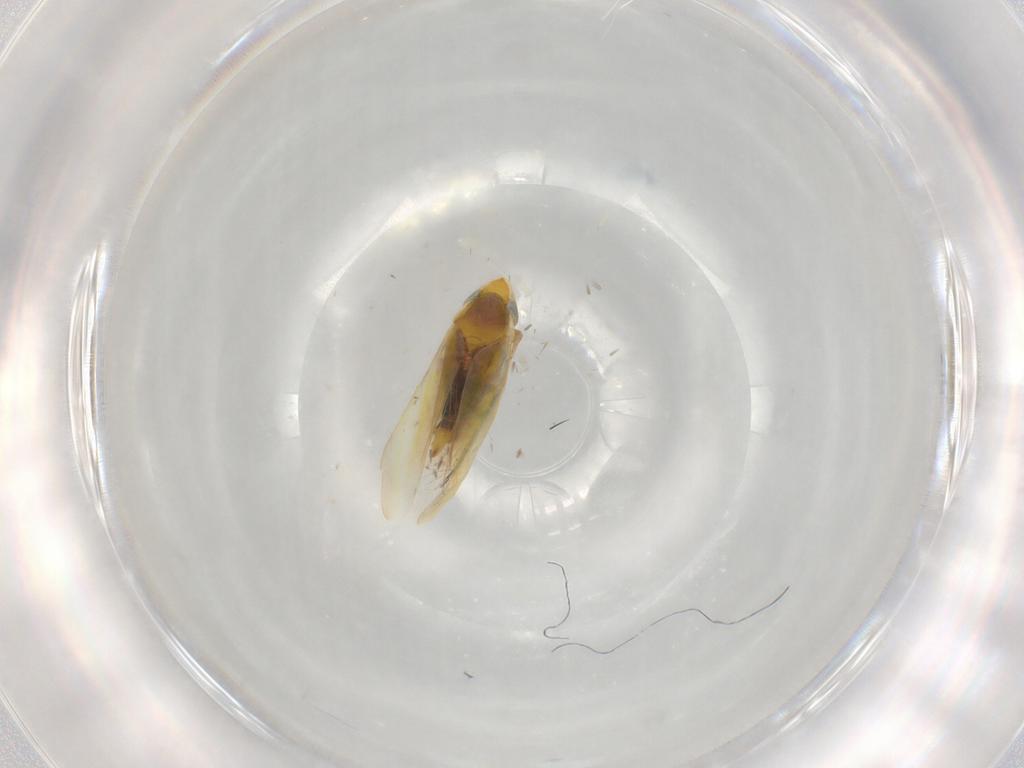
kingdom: Animalia
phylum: Arthropoda
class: Insecta
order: Hemiptera
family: Cicadellidae
